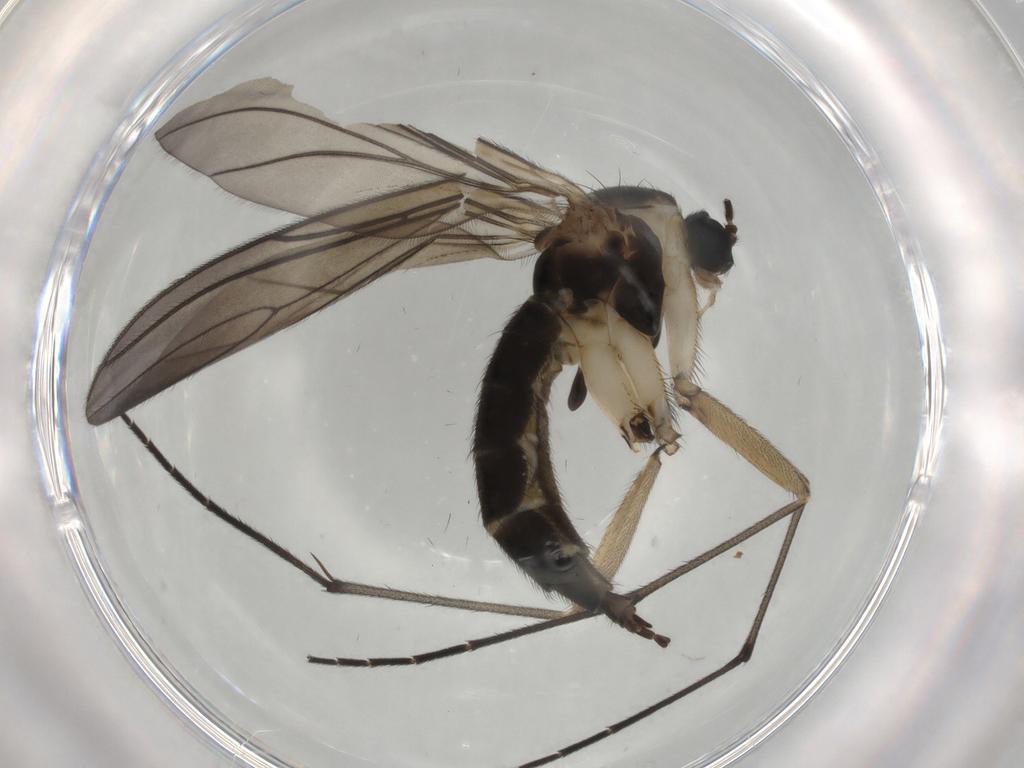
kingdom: Animalia
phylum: Arthropoda
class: Insecta
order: Diptera
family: Sciaridae
